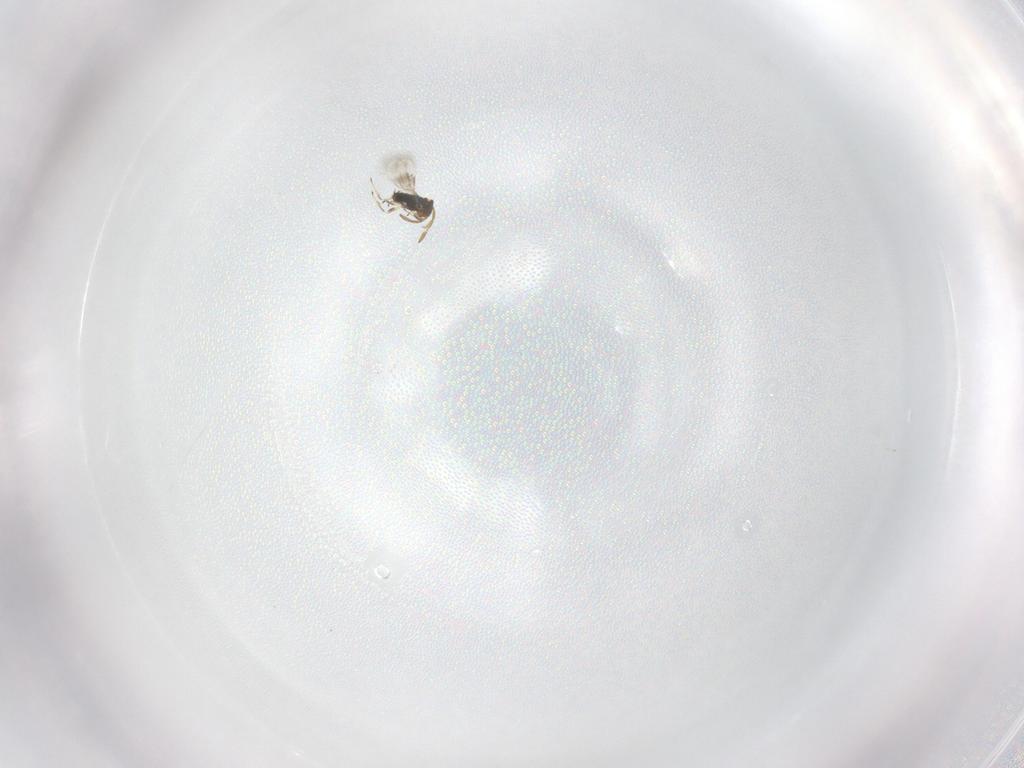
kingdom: Animalia
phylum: Arthropoda
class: Insecta
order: Hymenoptera
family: Azotidae
